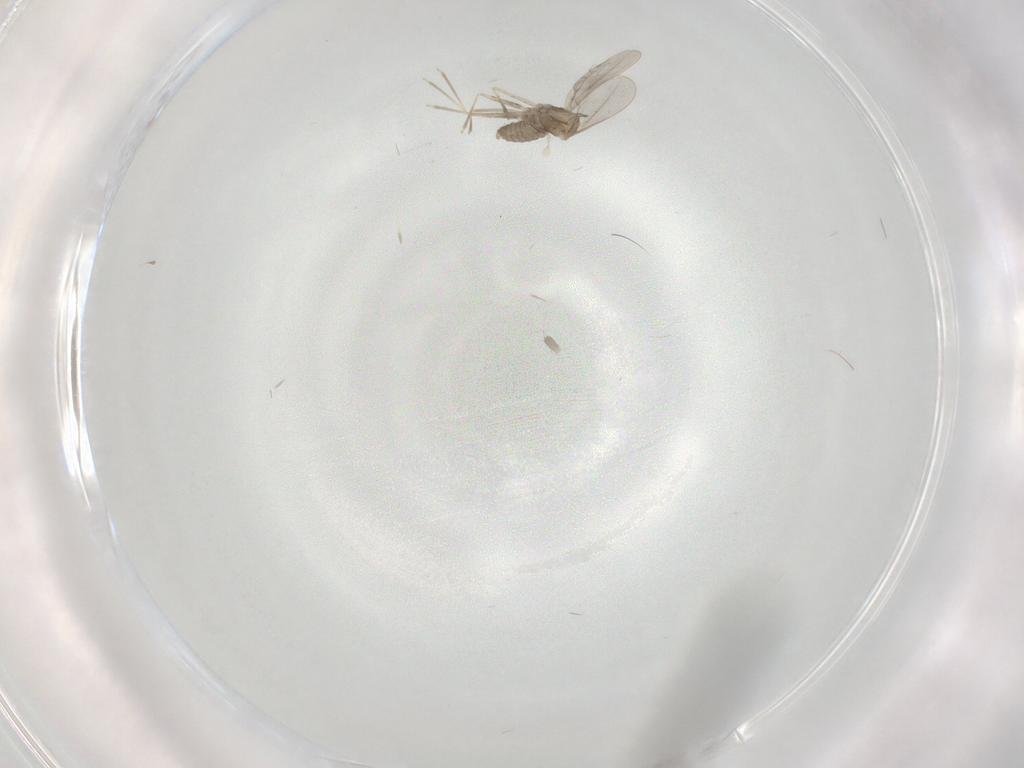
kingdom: Animalia
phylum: Arthropoda
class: Insecta
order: Diptera
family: Cecidomyiidae
